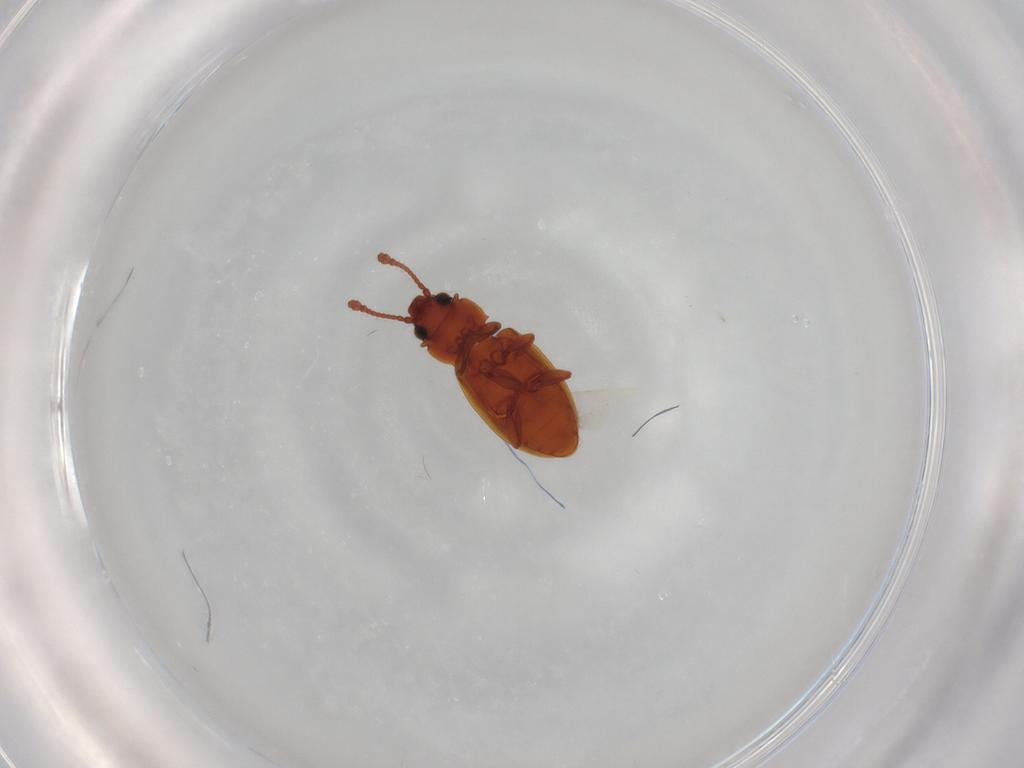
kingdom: Animalia
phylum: Arthropoda
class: Insecta
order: Coleoptera
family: Silvanidae
